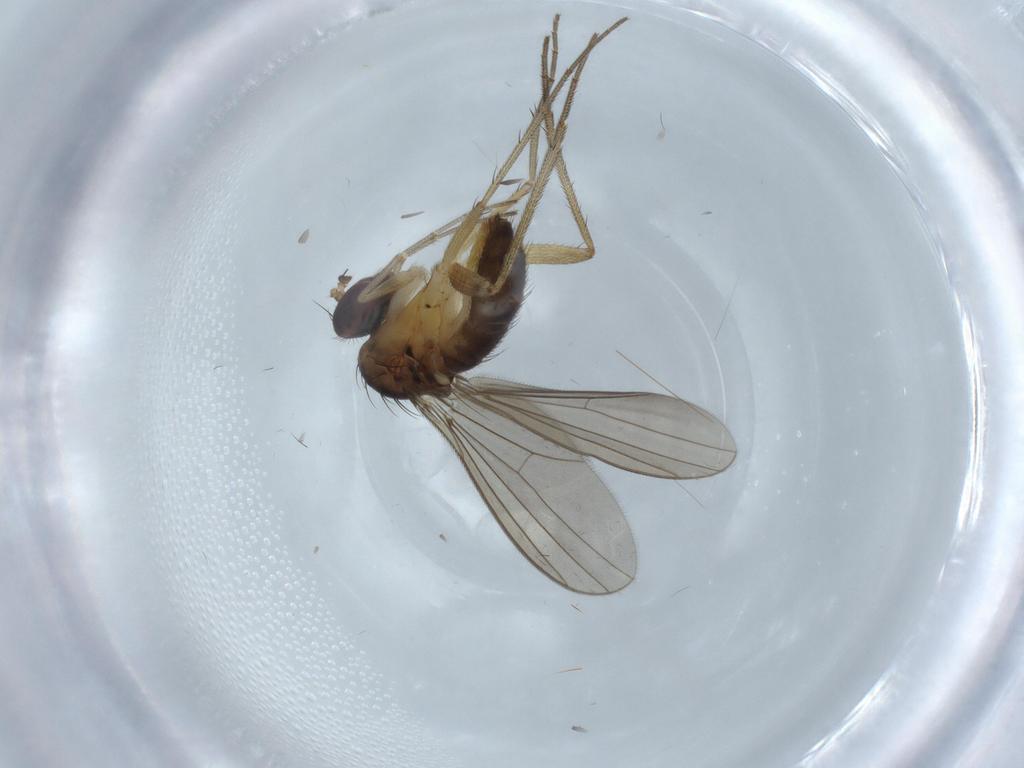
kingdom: Animalia
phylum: Arthropoda
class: Insecta
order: Diptera
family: Dolichopodidae
